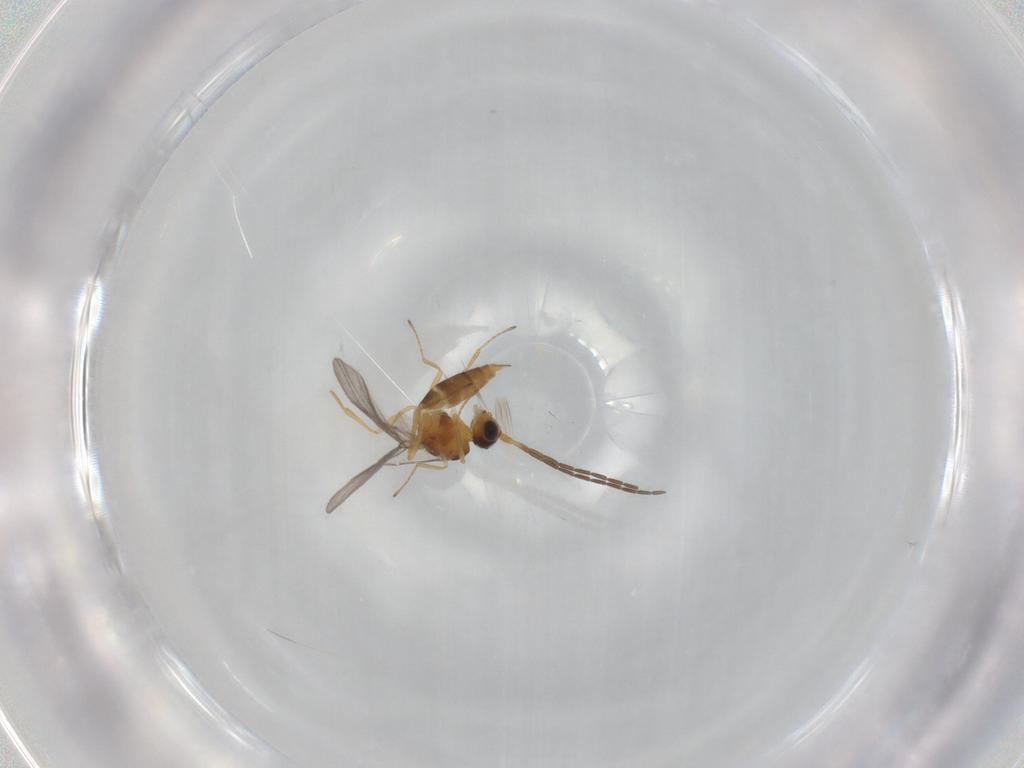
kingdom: Animalia
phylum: Arthropoda
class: Insecta
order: Hymenoptera
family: Braconidae
